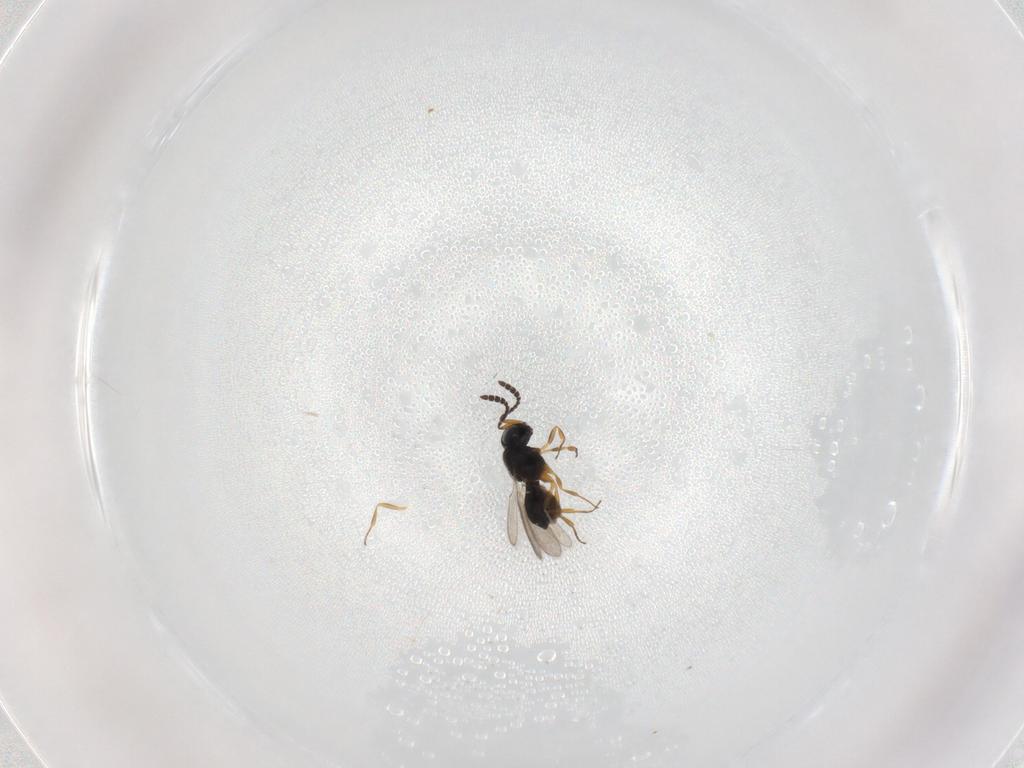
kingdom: Animalia
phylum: Arthropoda
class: Insecta
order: Hymenoptera
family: Scelionidae
